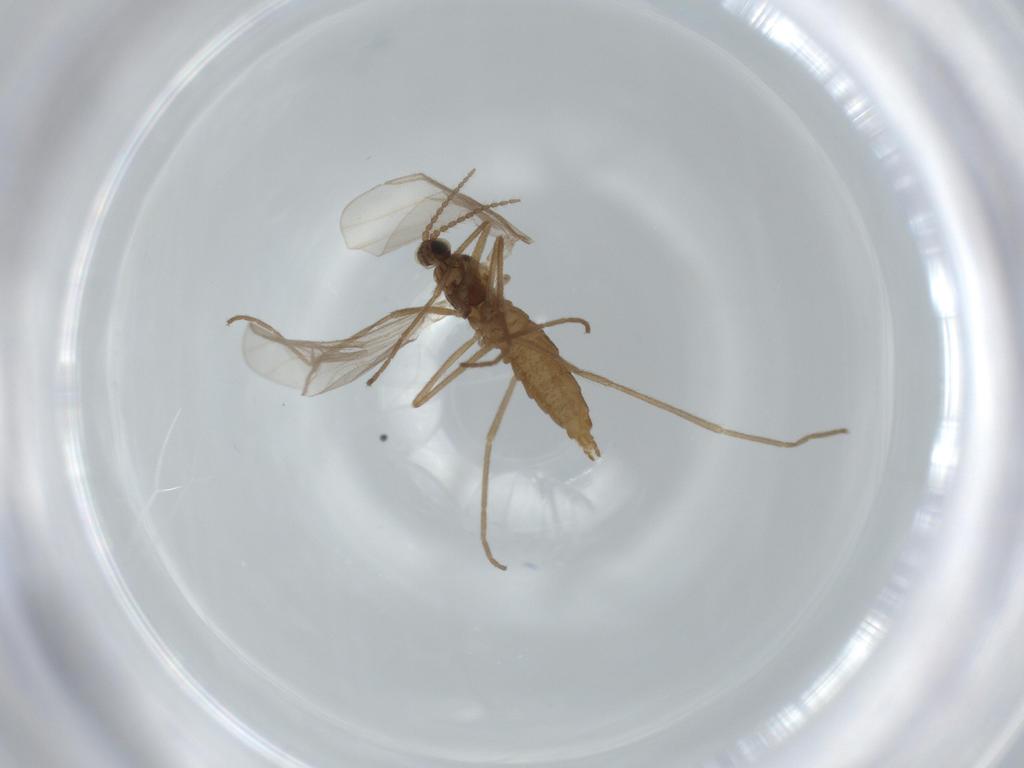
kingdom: Animalia
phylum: Arthropoda
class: Insecta
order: Diptera
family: Cecidomyiidae
